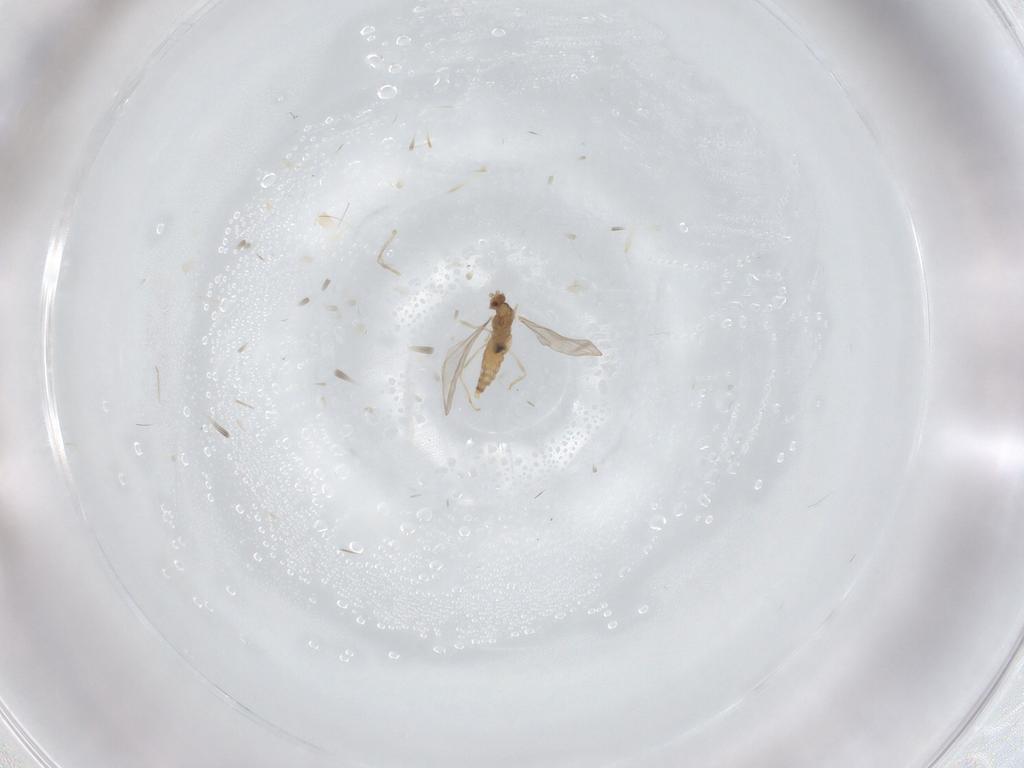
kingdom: Animalia
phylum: Arthropoda
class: Insecta
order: Diptera
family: Cecidomyiidae
